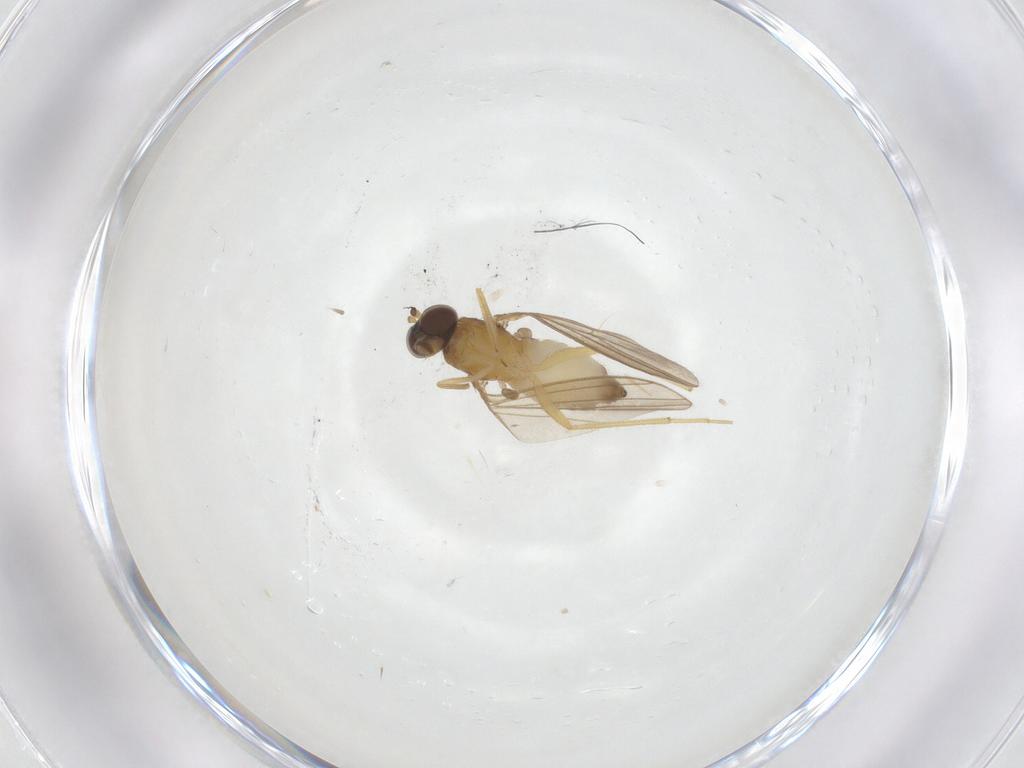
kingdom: Animalia
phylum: Arthropoda
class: Insecta
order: Diptera
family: Dolichopodidae
